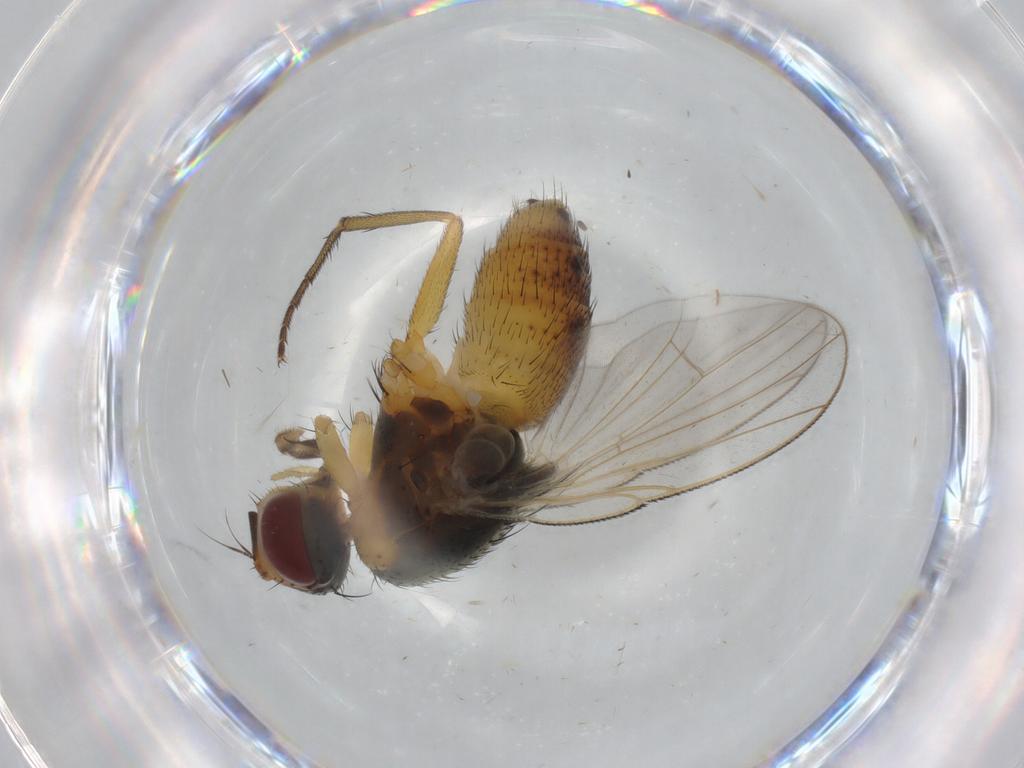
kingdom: Animalia
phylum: Arthropoda
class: Insecta
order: Diptera
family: Muscidae
